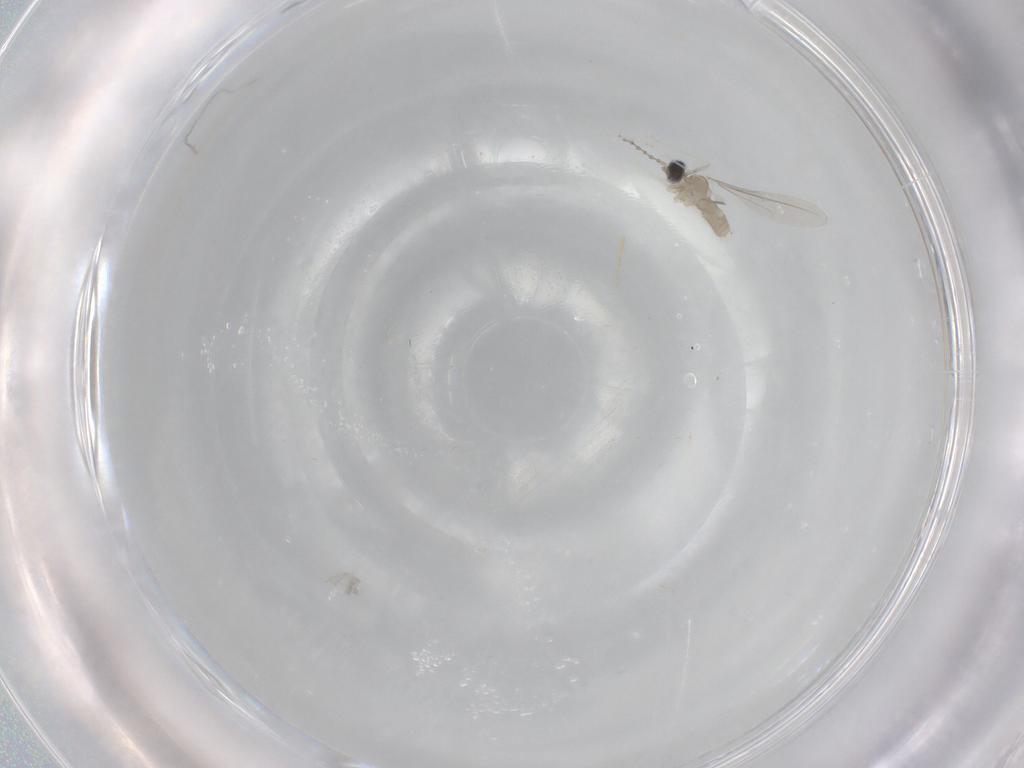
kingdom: Animalia
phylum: Arthropoda
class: Insecta
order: Diptera
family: Cecidomyiidae
